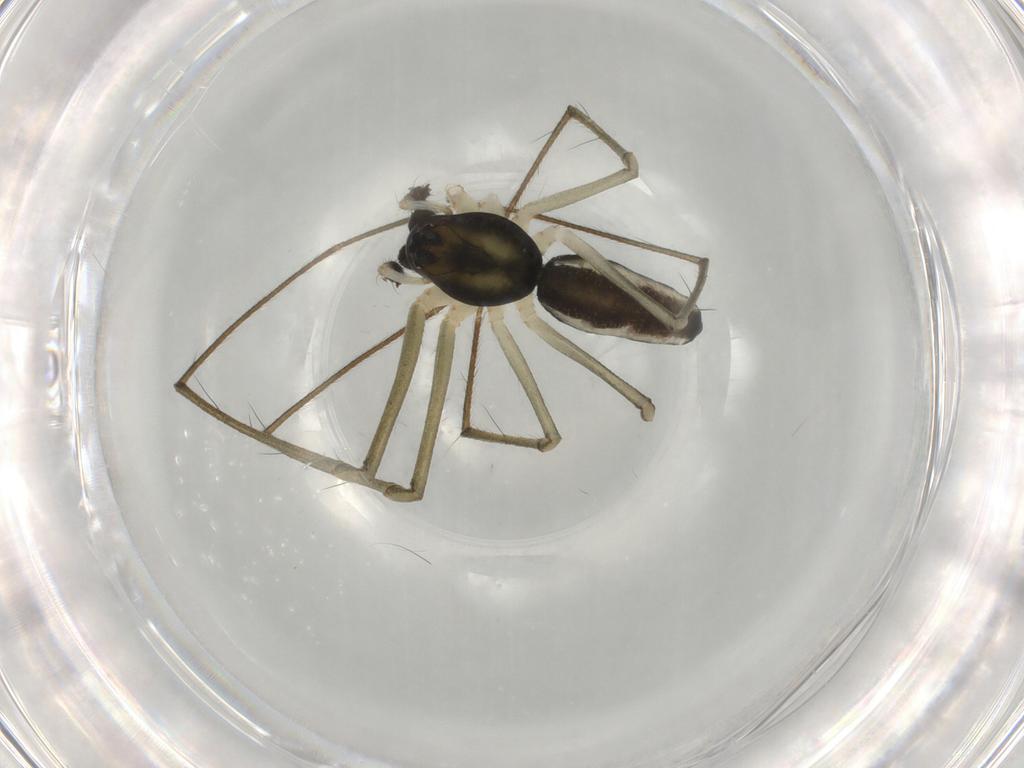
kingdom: Animalia
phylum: Arthropoda
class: Arachnida
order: Araneae
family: Linyphiidae
